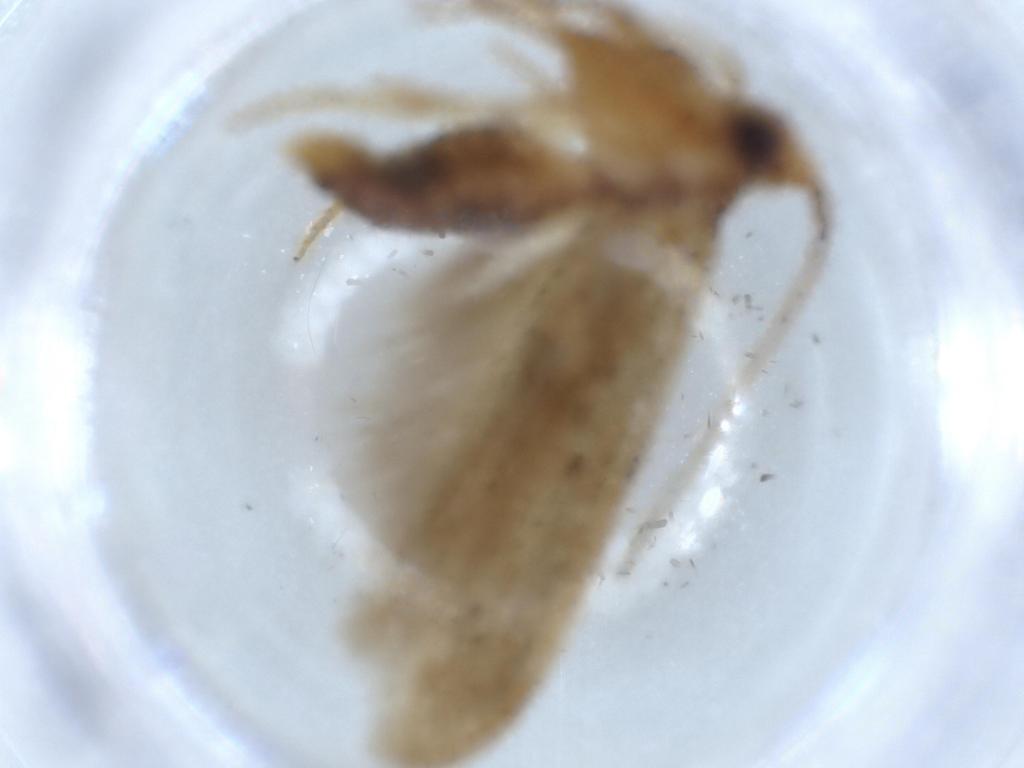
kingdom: Animalia
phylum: Arthropoda
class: Insecta
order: Lepidoptera
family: Blastobasidae
